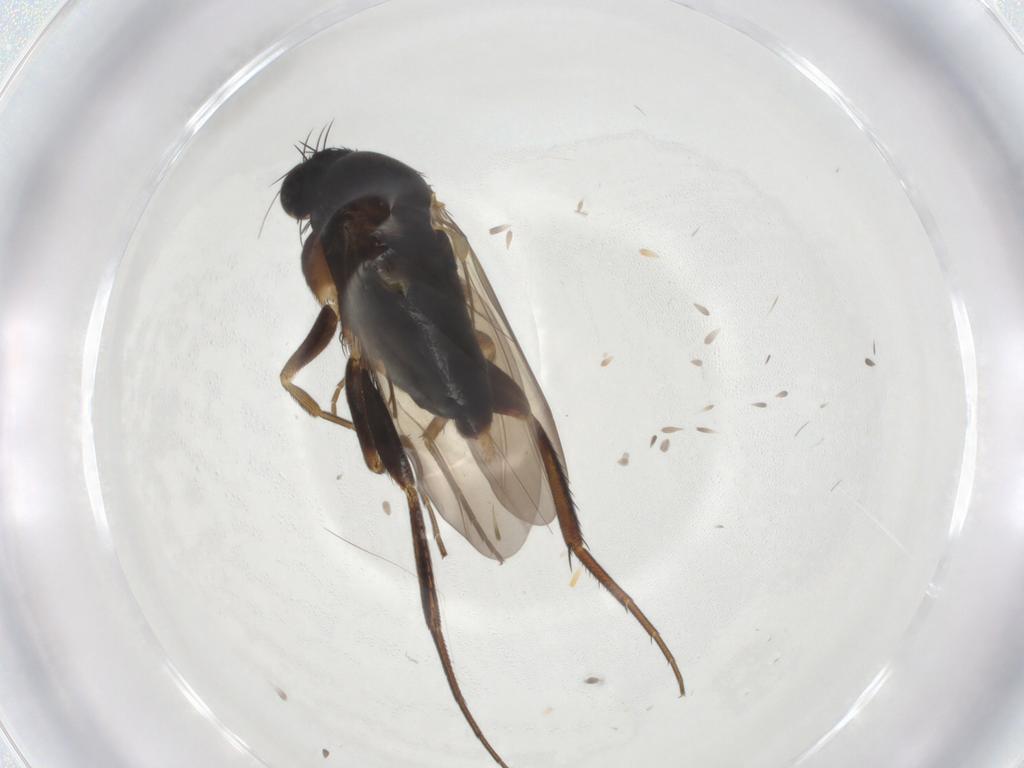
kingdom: Animalia
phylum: Arthropoda
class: Insecta
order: Diptera
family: Phoridae
